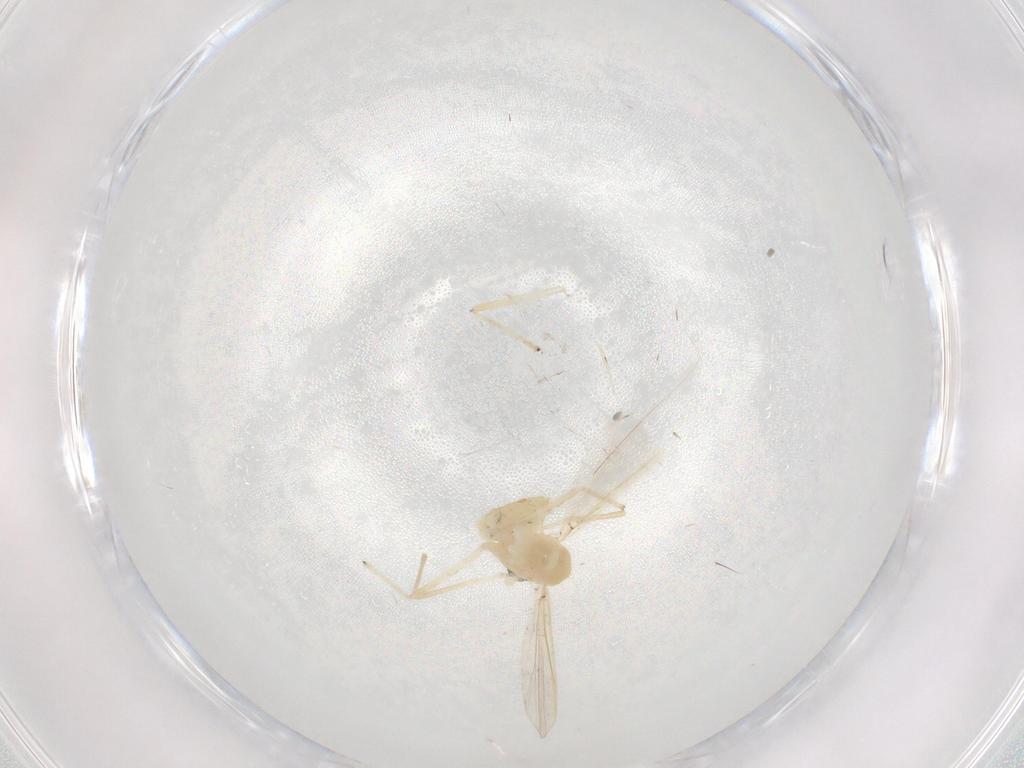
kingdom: Animalia
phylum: Arthropoda
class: Insecta
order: Diptera
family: Chironomidae
